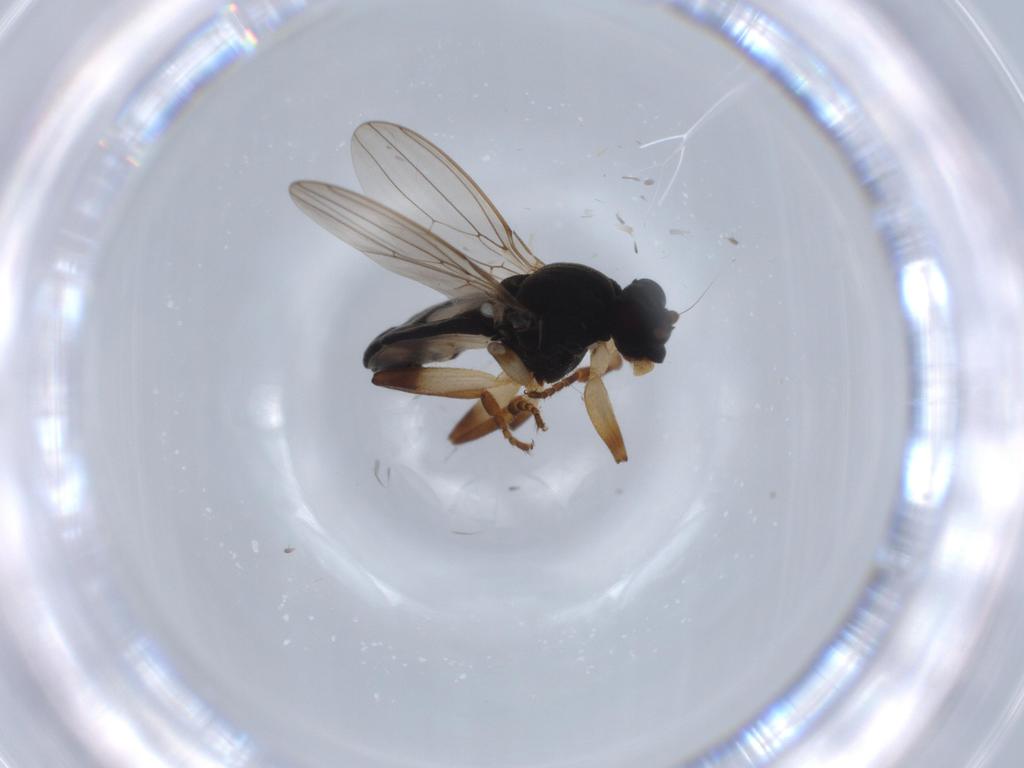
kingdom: Animalia
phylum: Arthropoda
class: Insecta
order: Diptera
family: Sphaeroceridae
